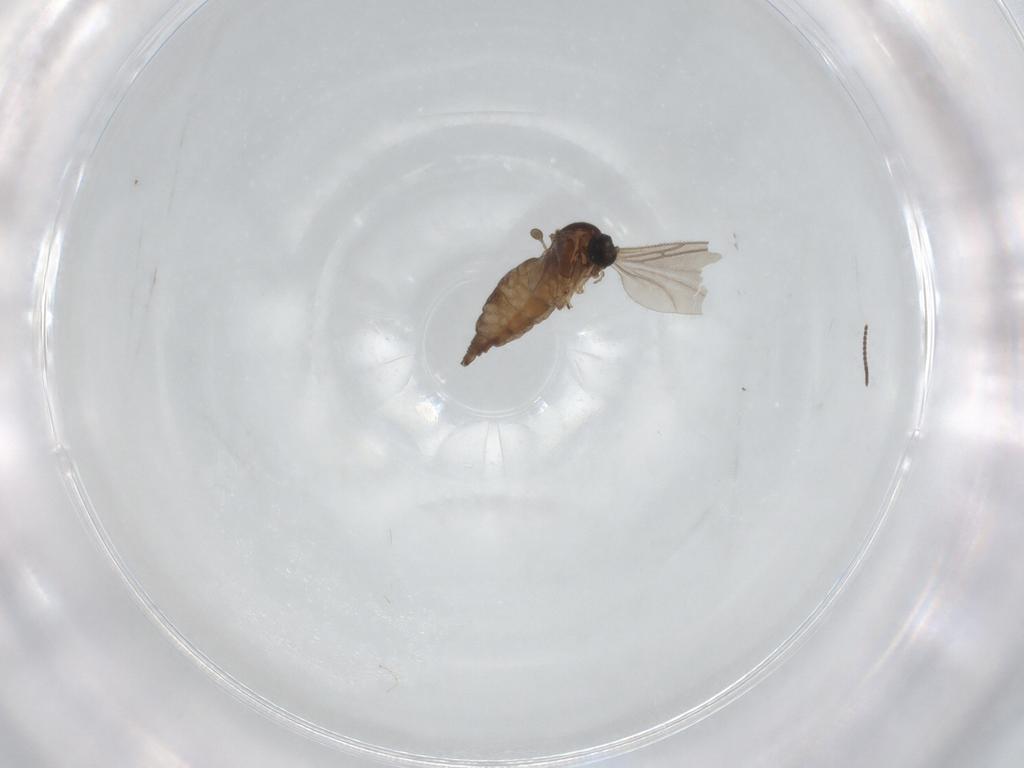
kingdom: Animalia
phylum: Arthropoda
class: Insecta
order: Diptera
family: Sciaridae
